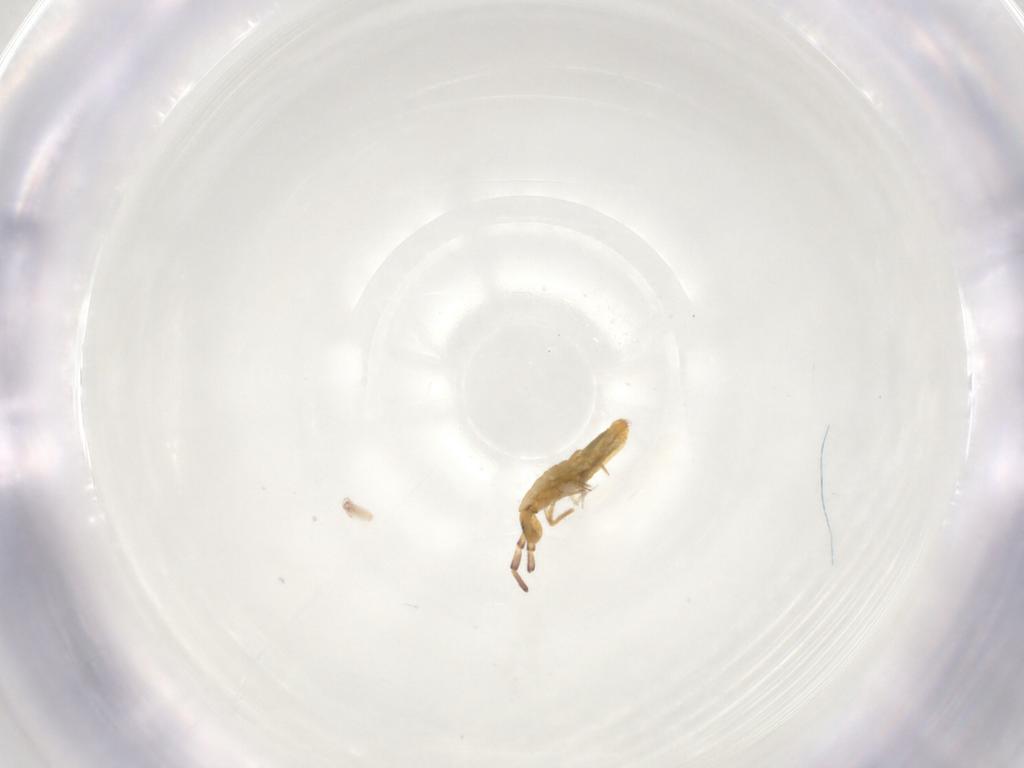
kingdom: Animalia
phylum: Arthropoda
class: Collembola
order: Entomobryomorpha
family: Entomobryidae
